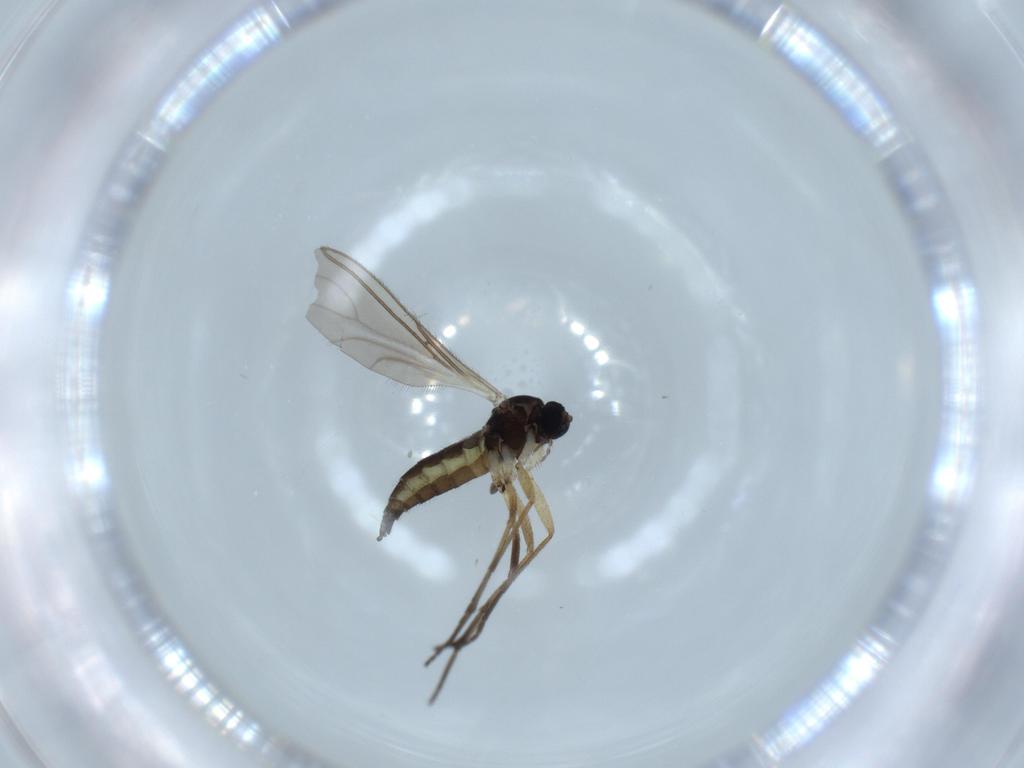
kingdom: Animalia
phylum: Arthropoda
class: Insecta
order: Diptera
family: Sciaridae
